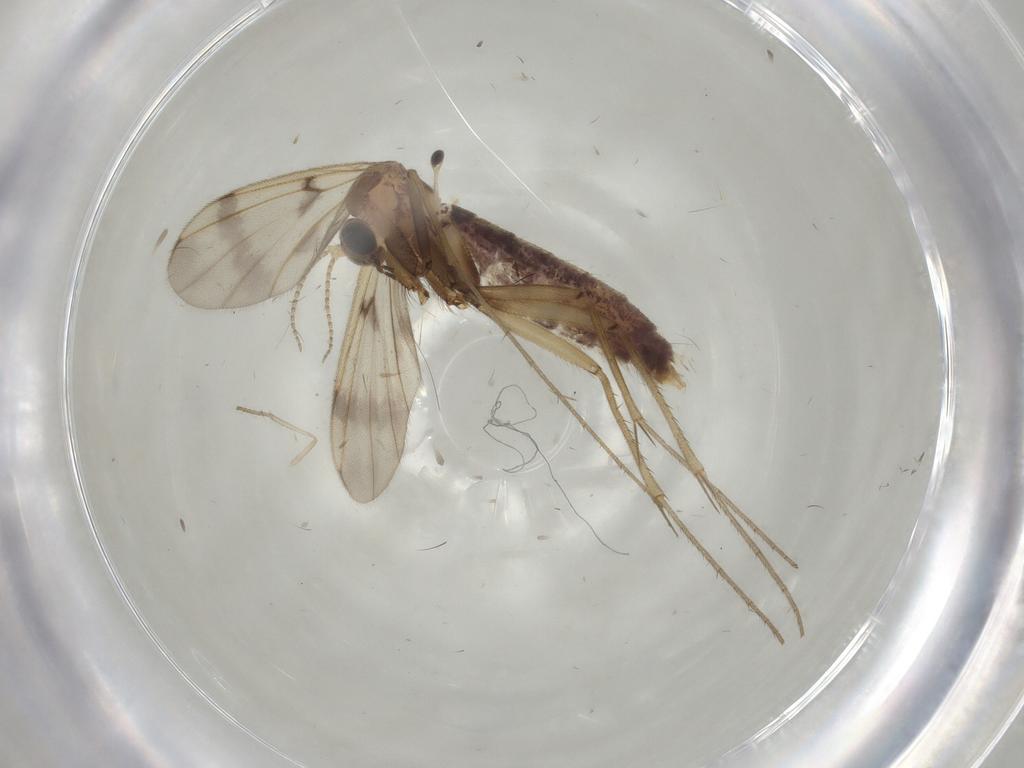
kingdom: Animalia
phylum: Arthropoda
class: Insecta
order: Diptera
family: Mycetophilidae
